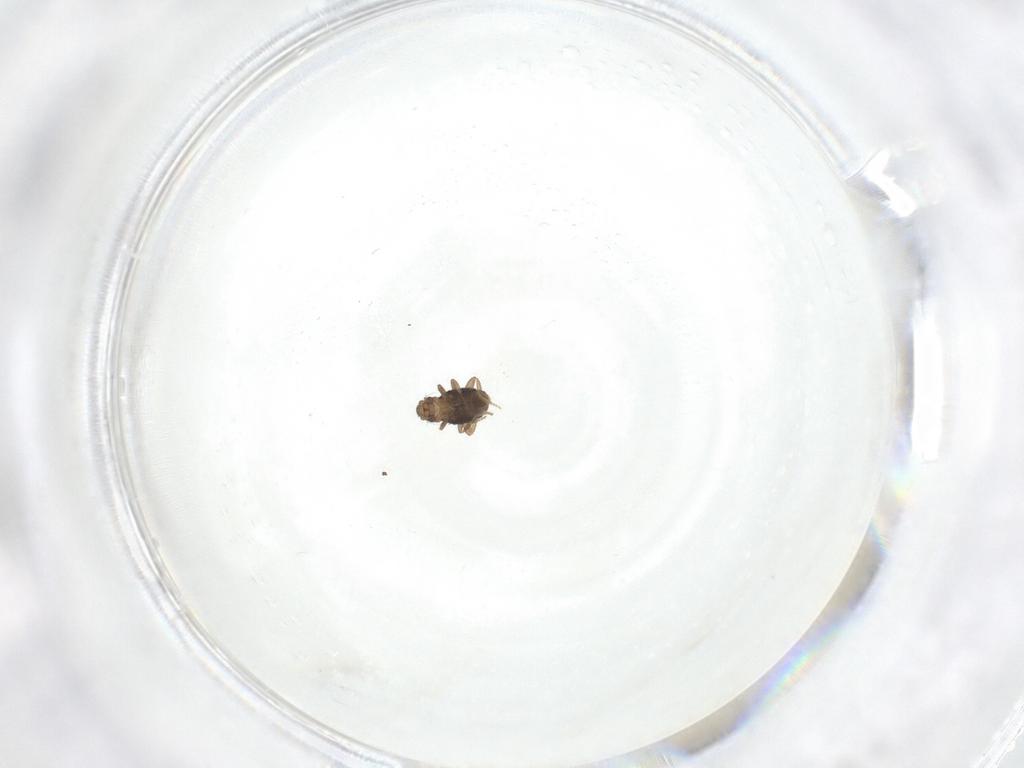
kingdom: Animalia
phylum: Arthropoda
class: Insecta
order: Diptera
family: Phoridae
